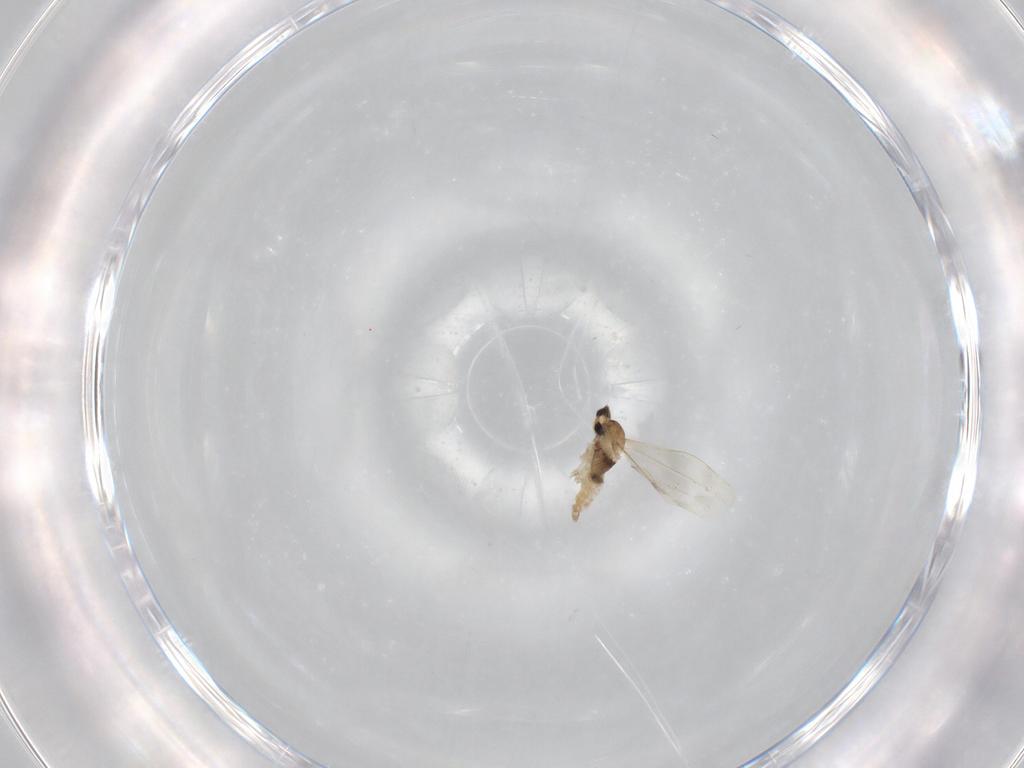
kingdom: Animalia
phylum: Arthropoda
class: Insecta
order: Diptera
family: Cecidomyiidae
